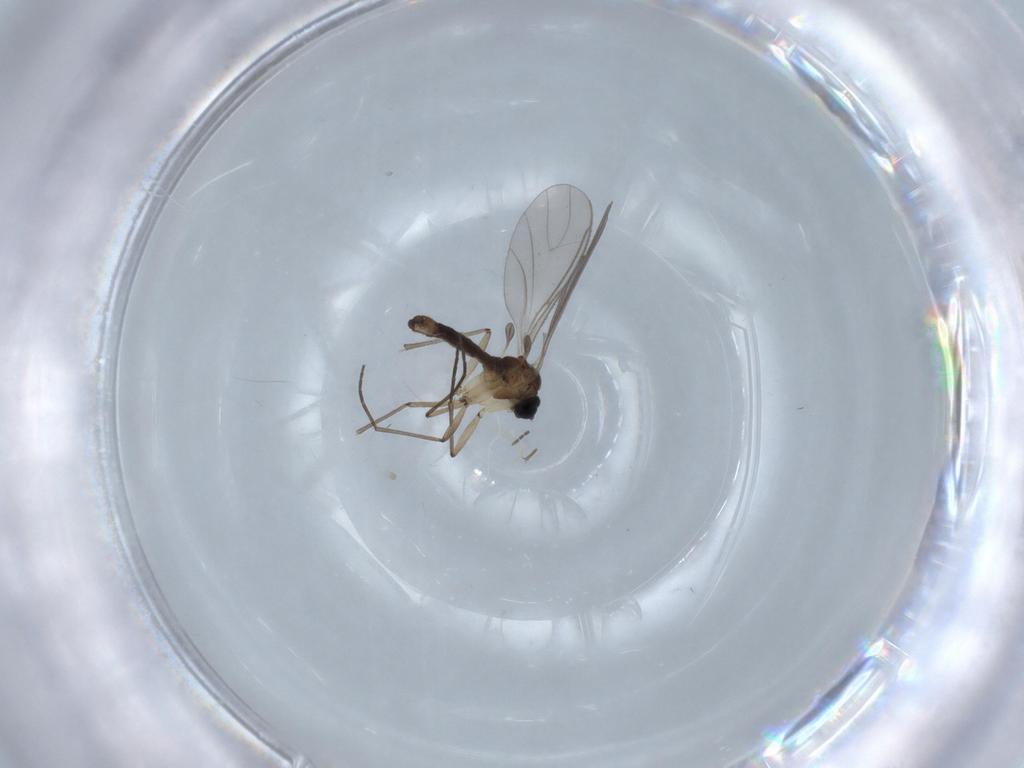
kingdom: Animalia
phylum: Arthropoda
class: Insecta
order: Diptera
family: Sciaridae
